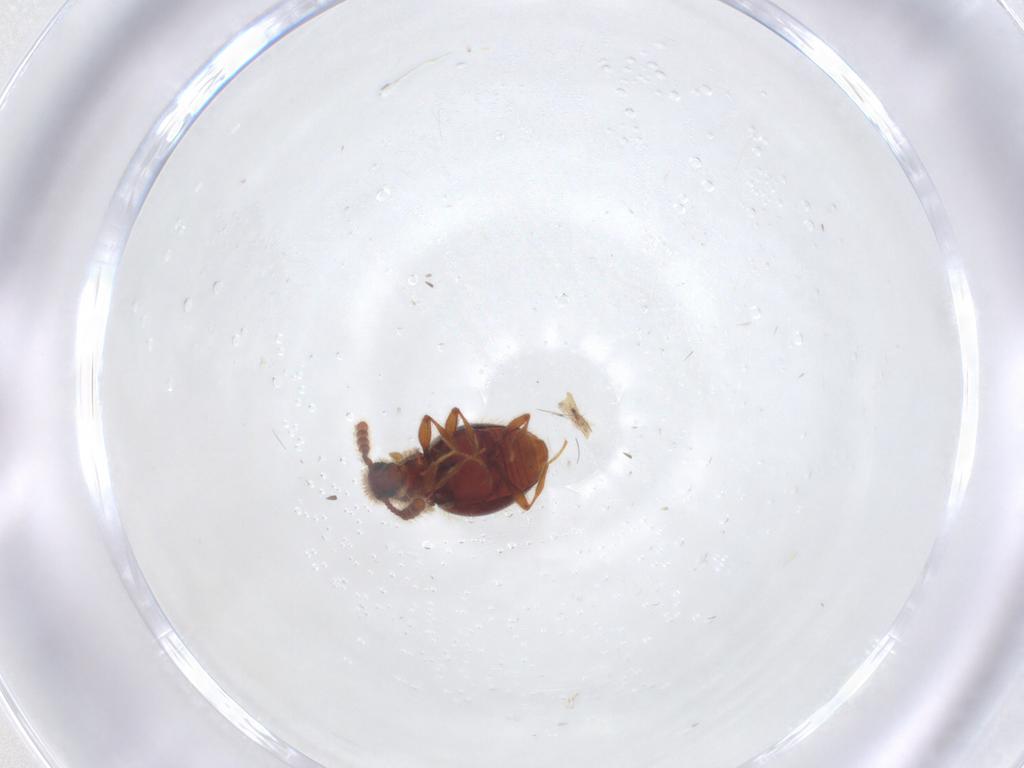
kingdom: Animalia
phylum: Arthropoda
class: Insecta
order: Coleoptera
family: Staphylinidae
